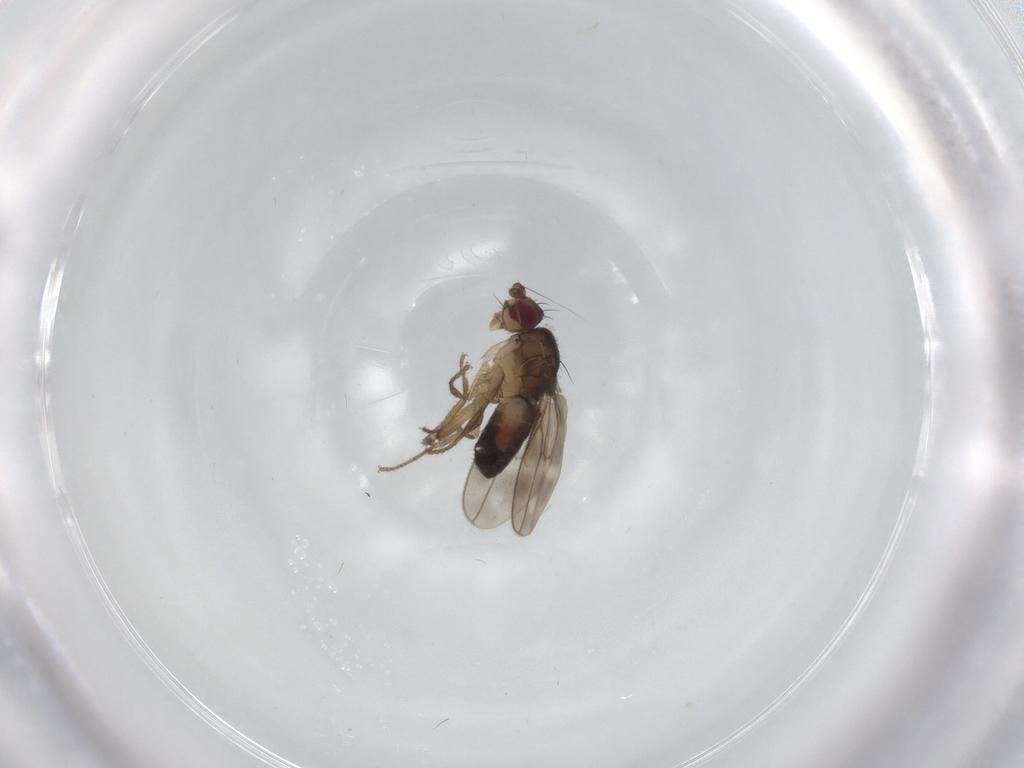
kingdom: Animalia
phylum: Arthropoda
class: Insecta
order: Diptera
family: Sphaeroceridae
